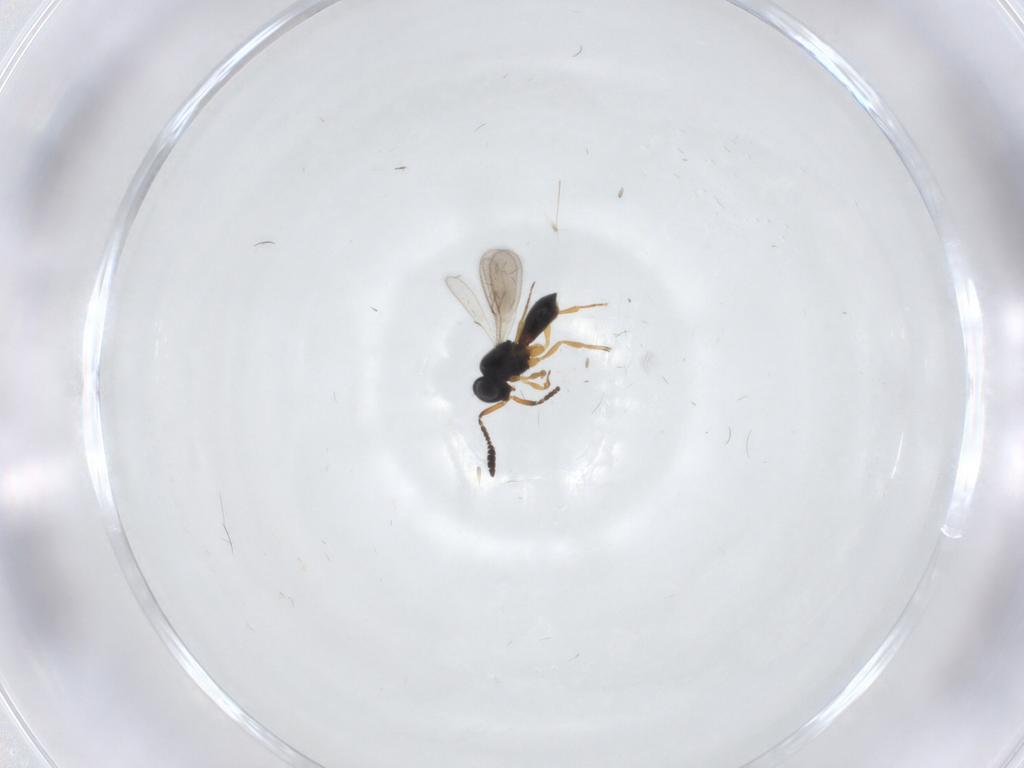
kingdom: Animalia
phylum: Arthropoda
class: Insecta
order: Hymenoptera
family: Scelionidae
